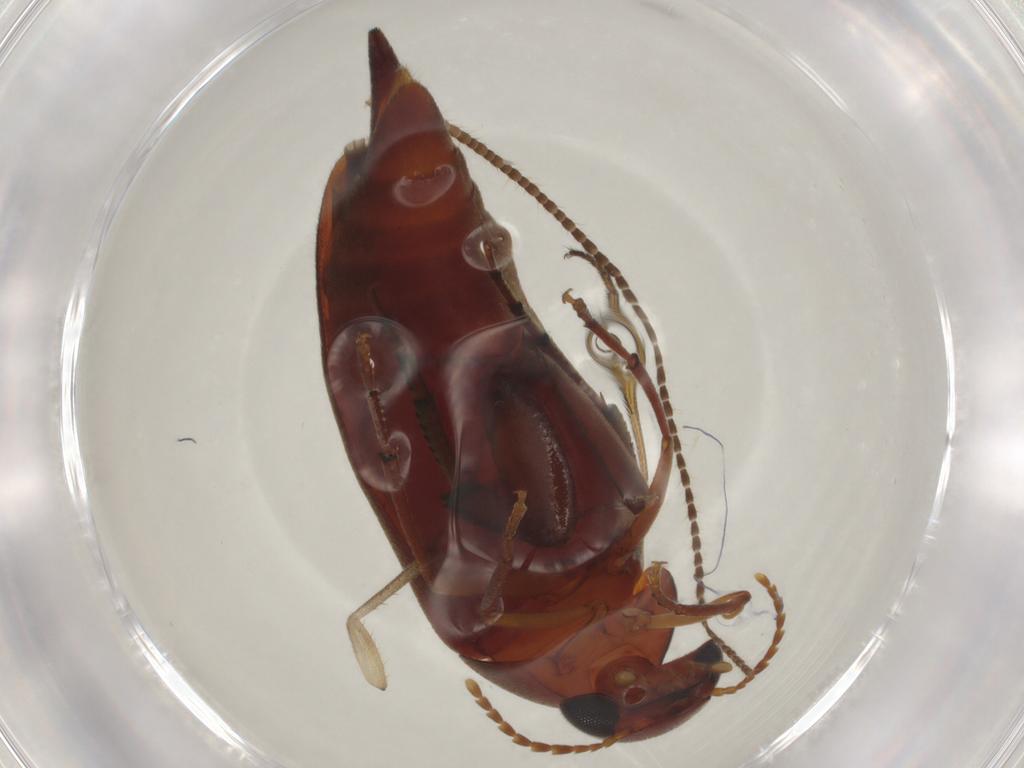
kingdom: Animalia
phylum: Arthropoda
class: Insecta
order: Coleoptera
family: Mordellidae
